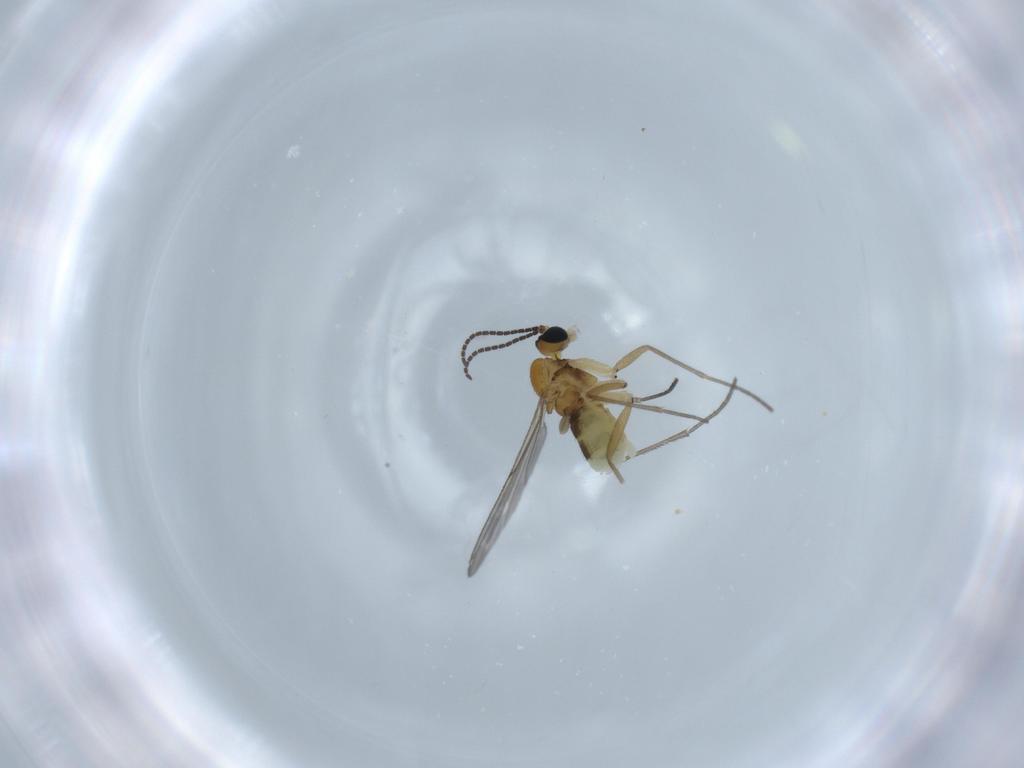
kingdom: Animalia
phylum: Arthropoda
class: Insecta
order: Diptera
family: Sciaridae
